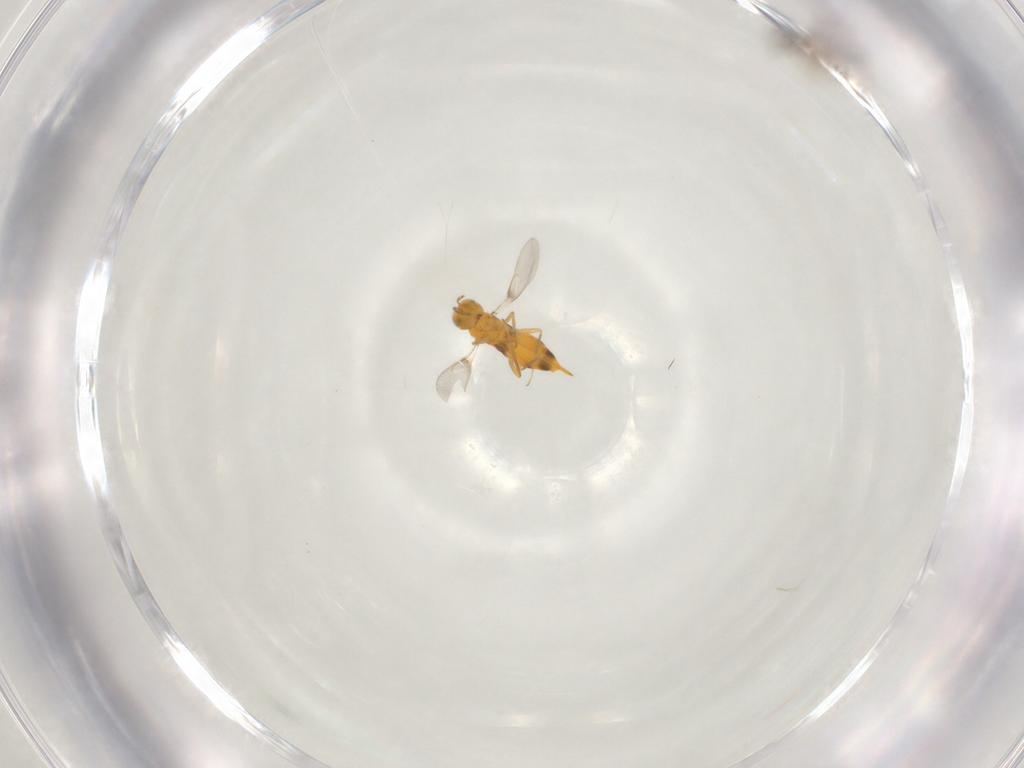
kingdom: Animalia
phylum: Arthropoda
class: Insecta
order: Hymenoptera
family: Aphelinidae
